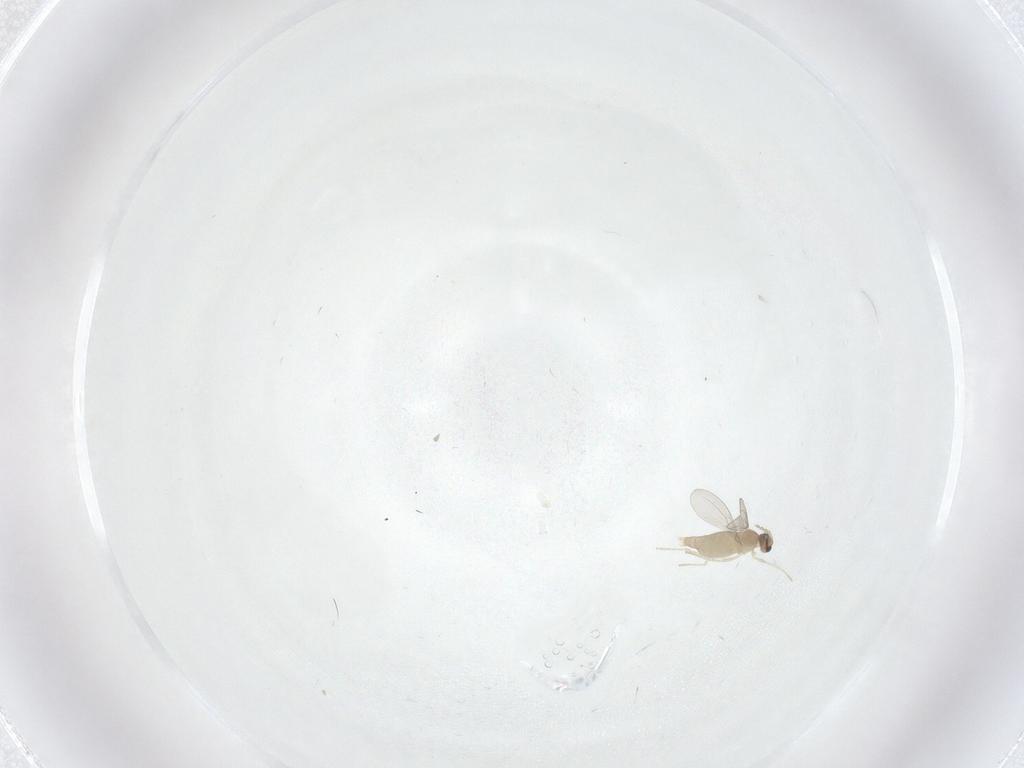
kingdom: Animalia
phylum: Arthropoda
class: Insecta
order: Diptera
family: Psychodidae
